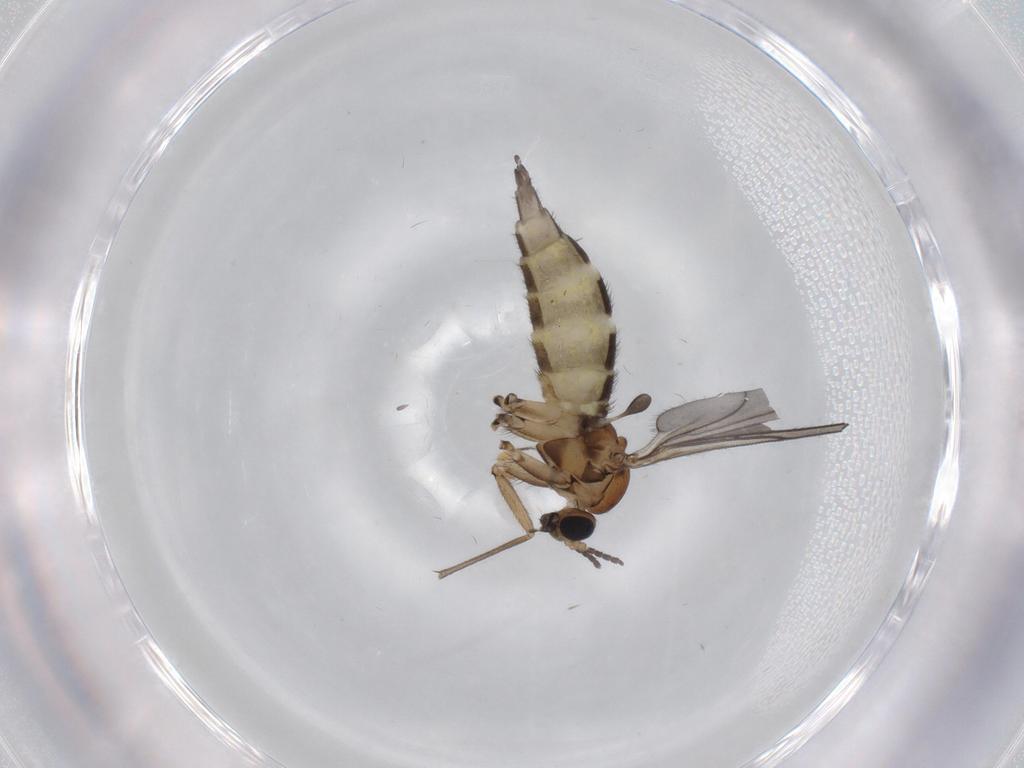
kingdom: Animalia
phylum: Arthropoda
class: Insecta
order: Diptera
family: Sciaridae
